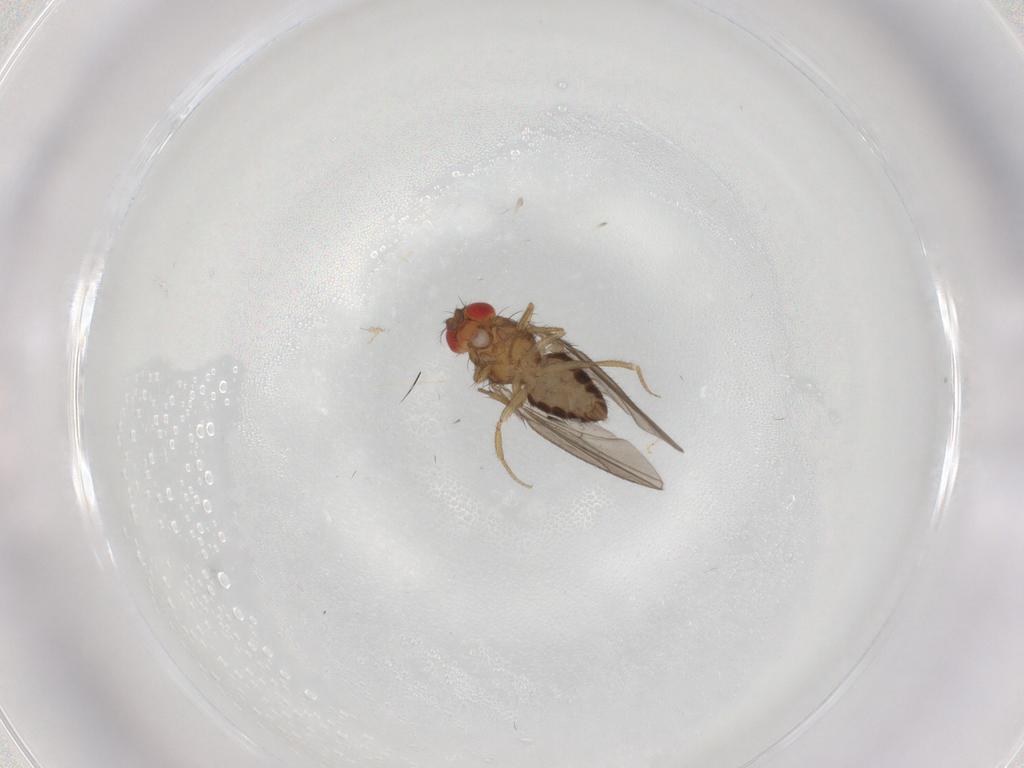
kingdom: Animalia
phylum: Arthropoda
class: Insecta
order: Diptera
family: Drosophilidae
